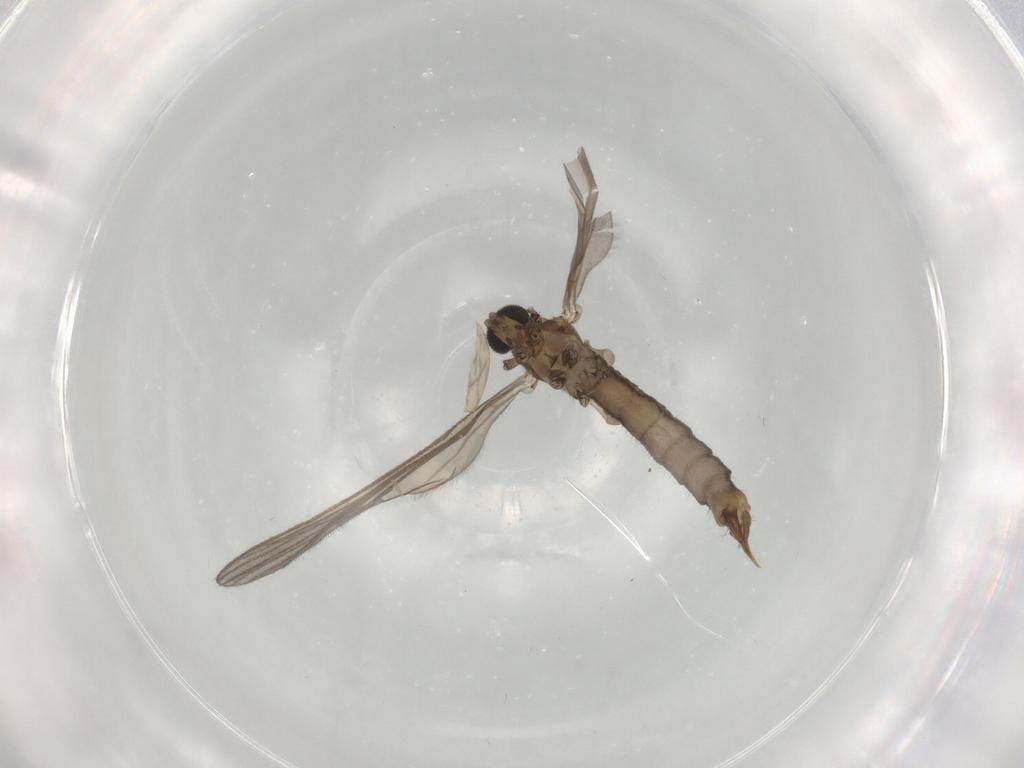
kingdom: Animalia
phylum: Arthropoda
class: Insecta
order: Diptera
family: Limoniidae
